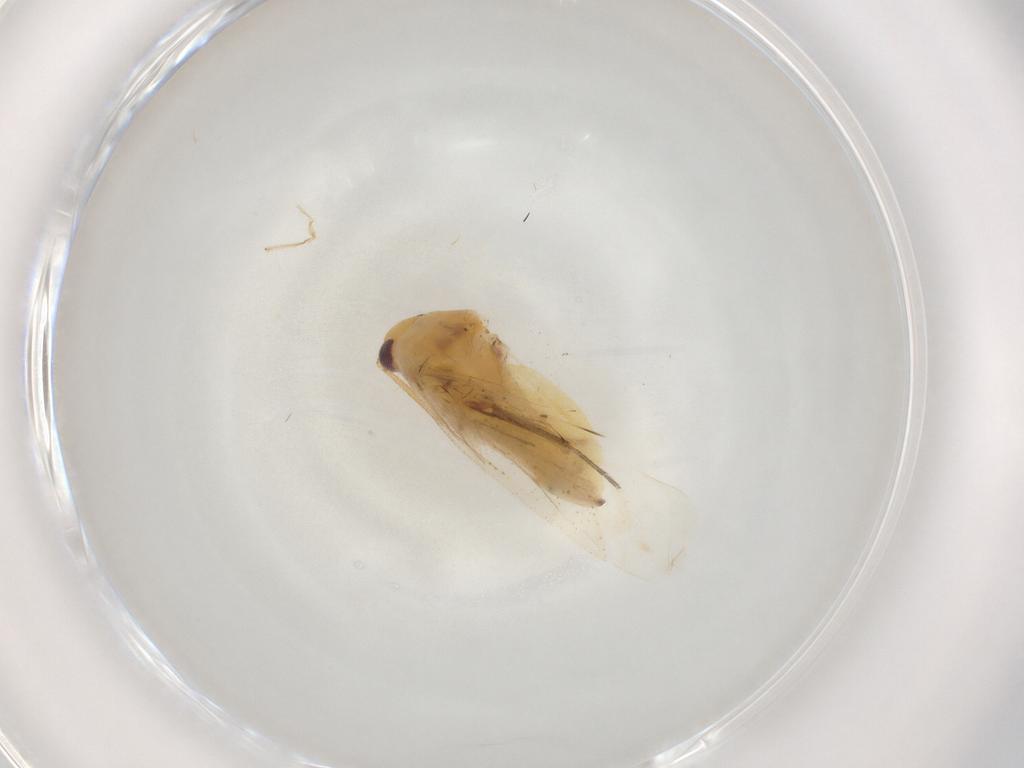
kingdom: Animalia
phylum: Arthropoda
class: Insecta
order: Hemiptera
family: Miridae
